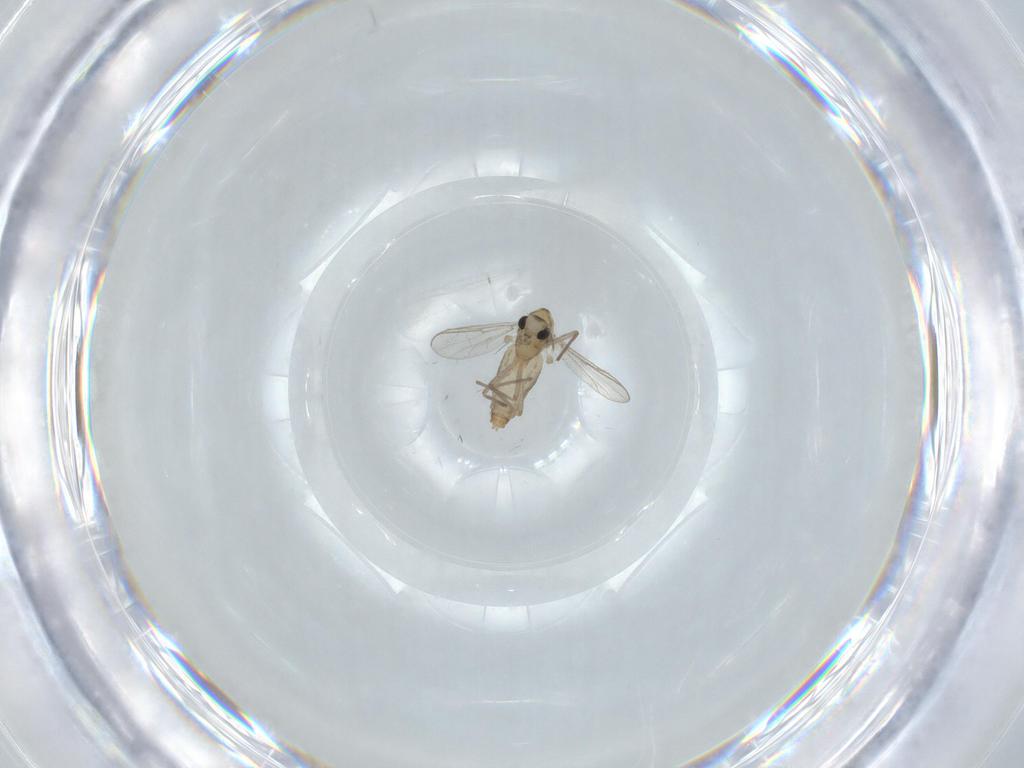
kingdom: Animalia
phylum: Arthropoda
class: Insecta
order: Diptera
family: Chironomidae
